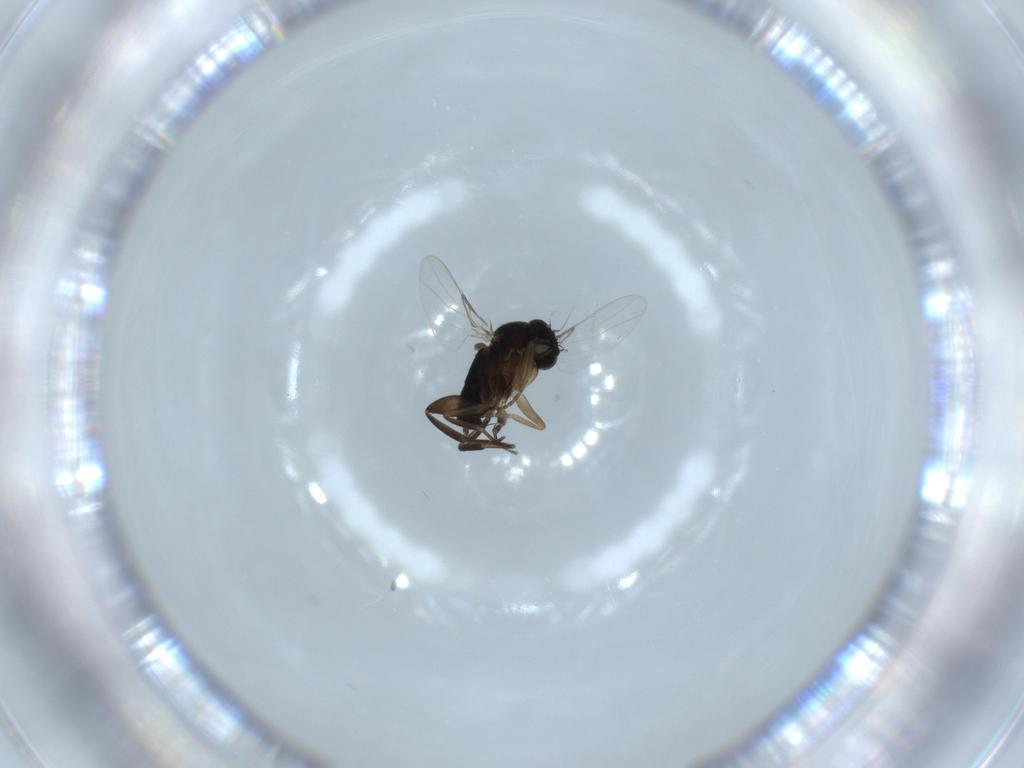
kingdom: Animalia
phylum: Arthropoda
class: Insecta
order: Diptera
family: Phoridae
